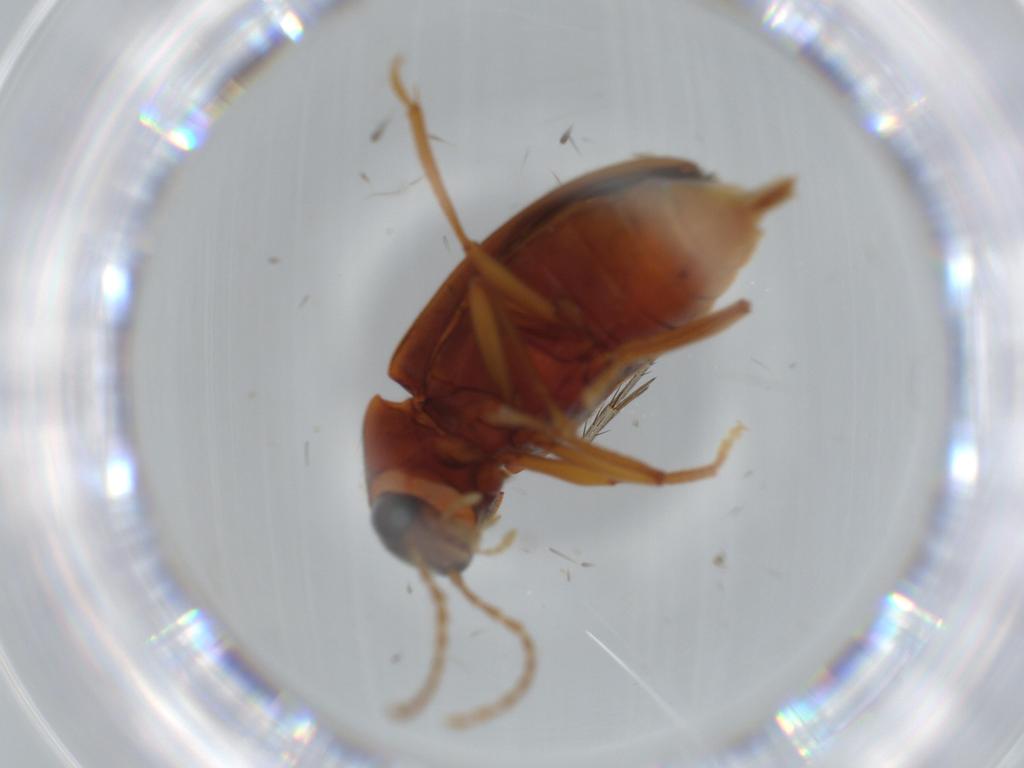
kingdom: Animalia
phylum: Arthropoda
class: Insecta
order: Coleoptera
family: Ptilodactylidae
